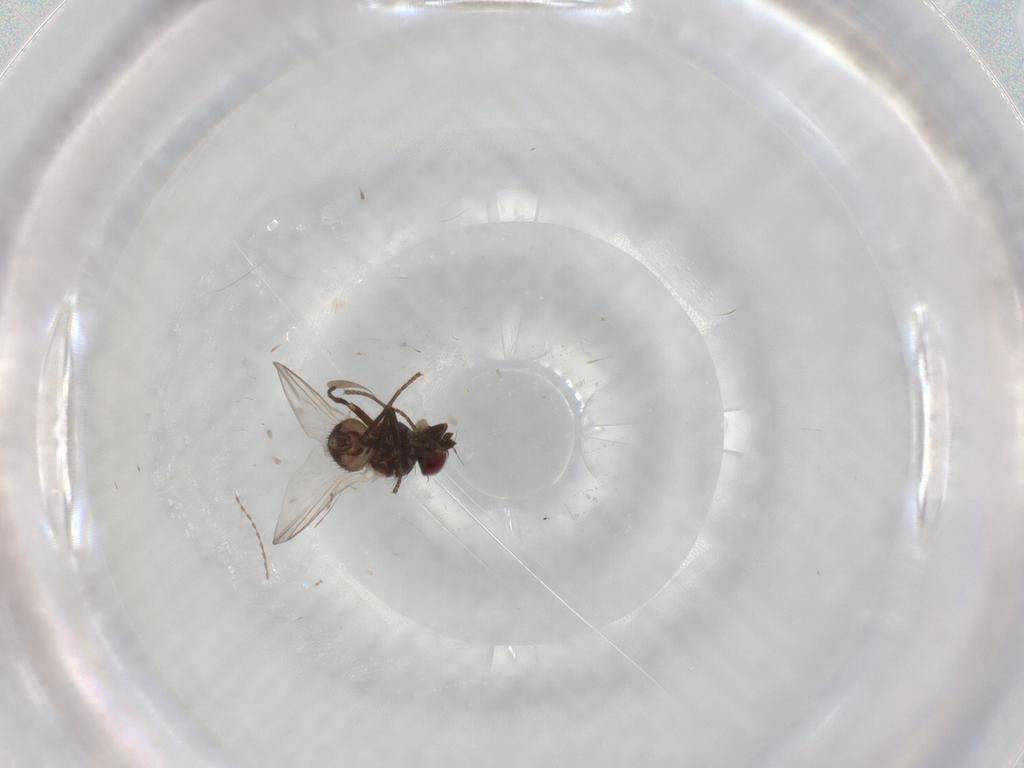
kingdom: Animalia
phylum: Arthropoda
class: Insecta
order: Diptera
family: Agromyzidae
